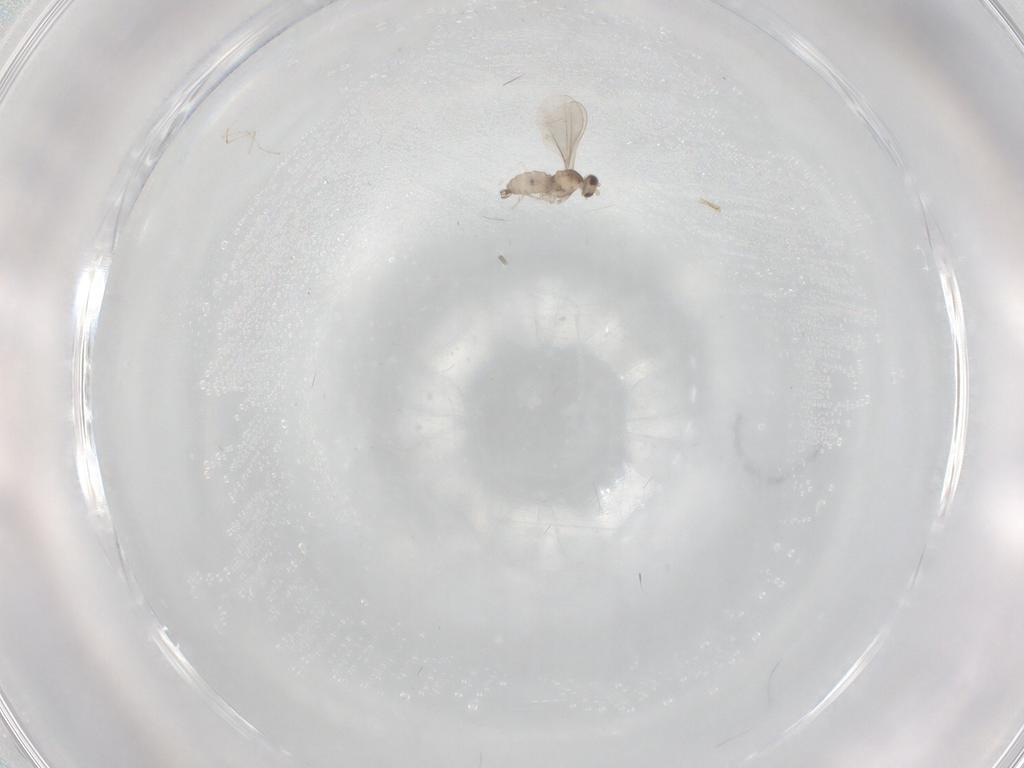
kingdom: Animalia
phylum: Arthropoda
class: Insecta
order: Diptera
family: Cecidomyiidae
